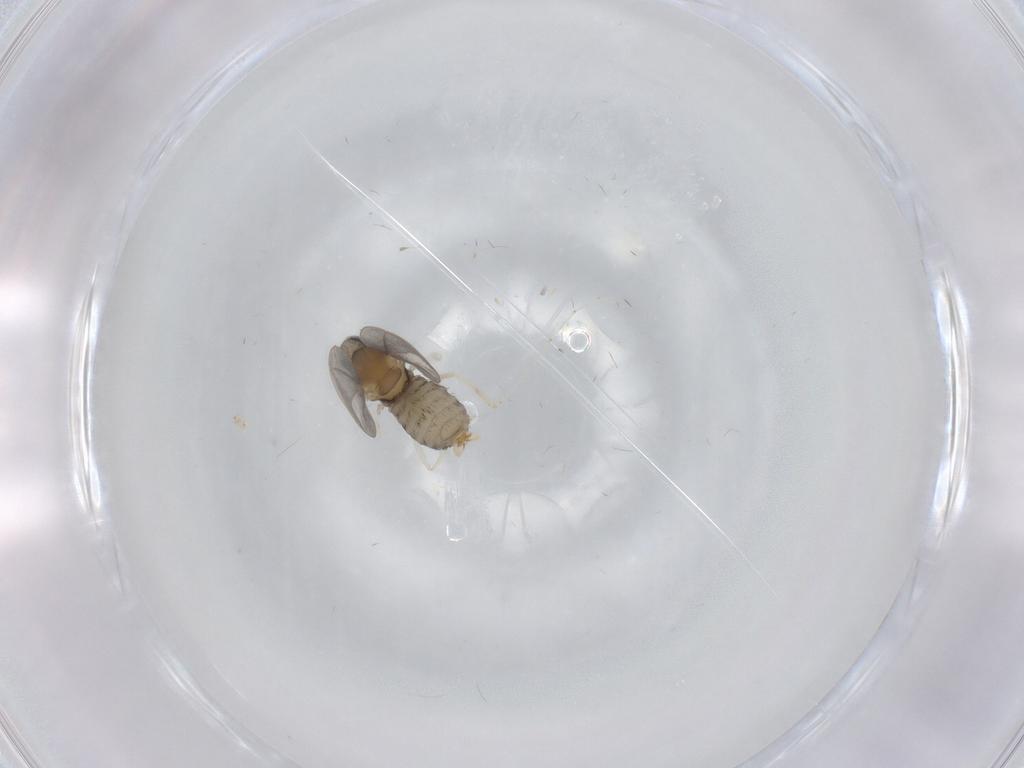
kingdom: Animalia
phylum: Arthropoda
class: Insecta
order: Diptera
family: Cecidomyiidae
